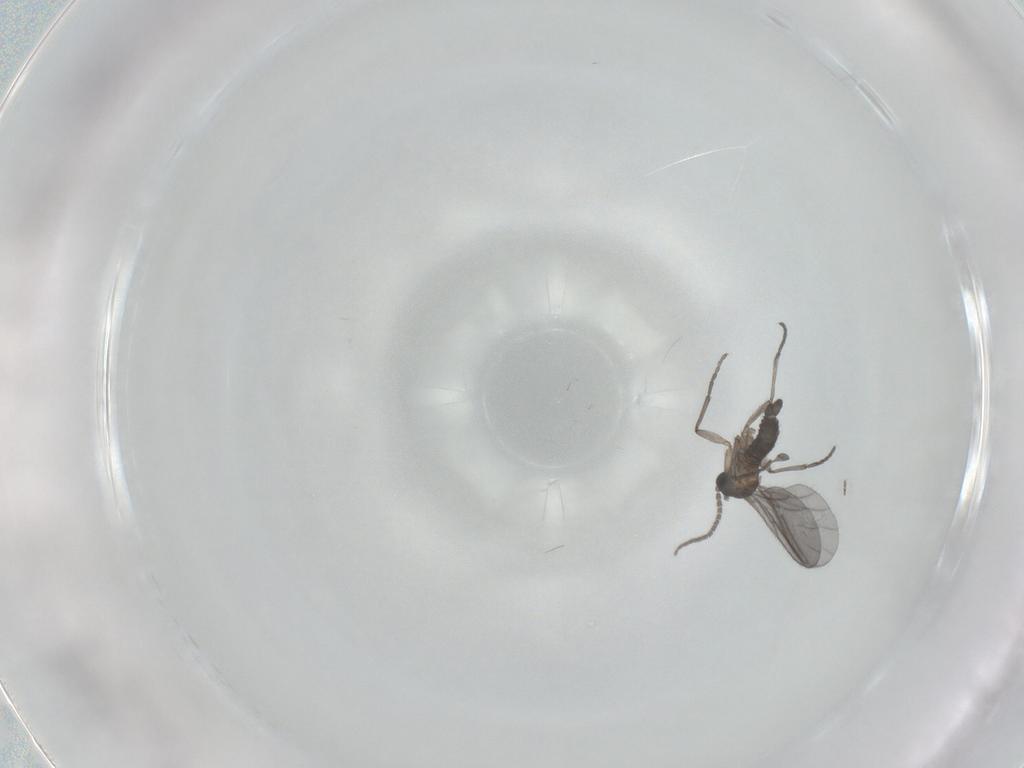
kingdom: Animalia
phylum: Arthropoda
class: Insecta
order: Diptera
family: Sciaridae
